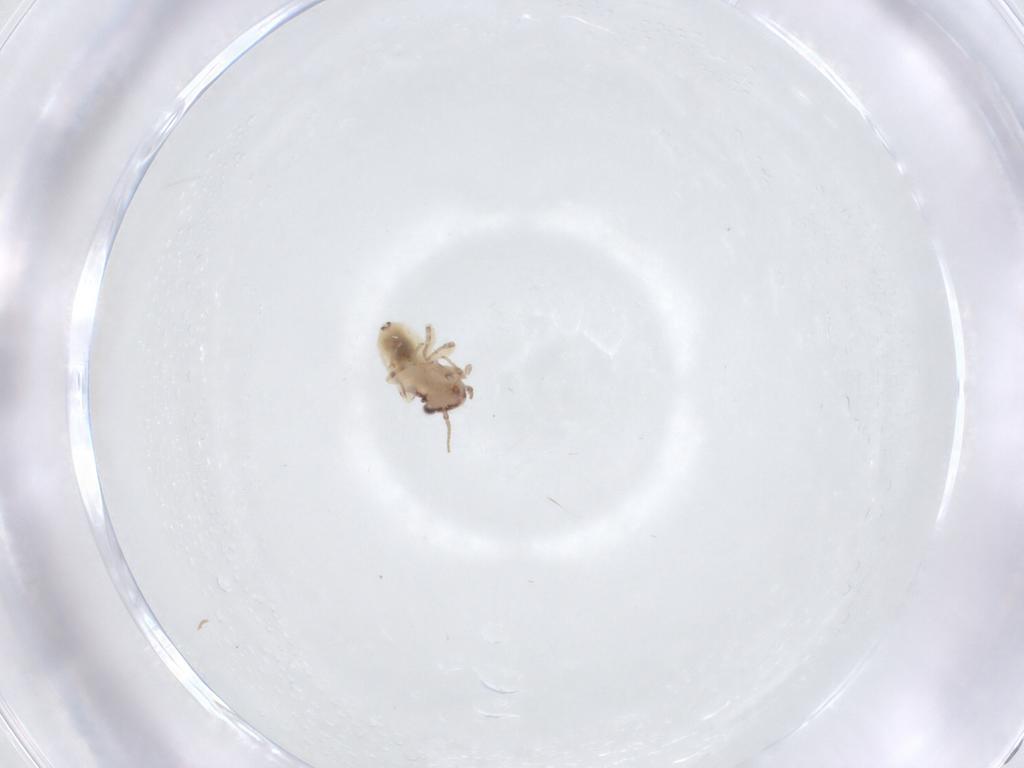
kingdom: Animalia
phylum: Arthropoda
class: Insecta
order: Psocodea
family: Lepidopsocidae
